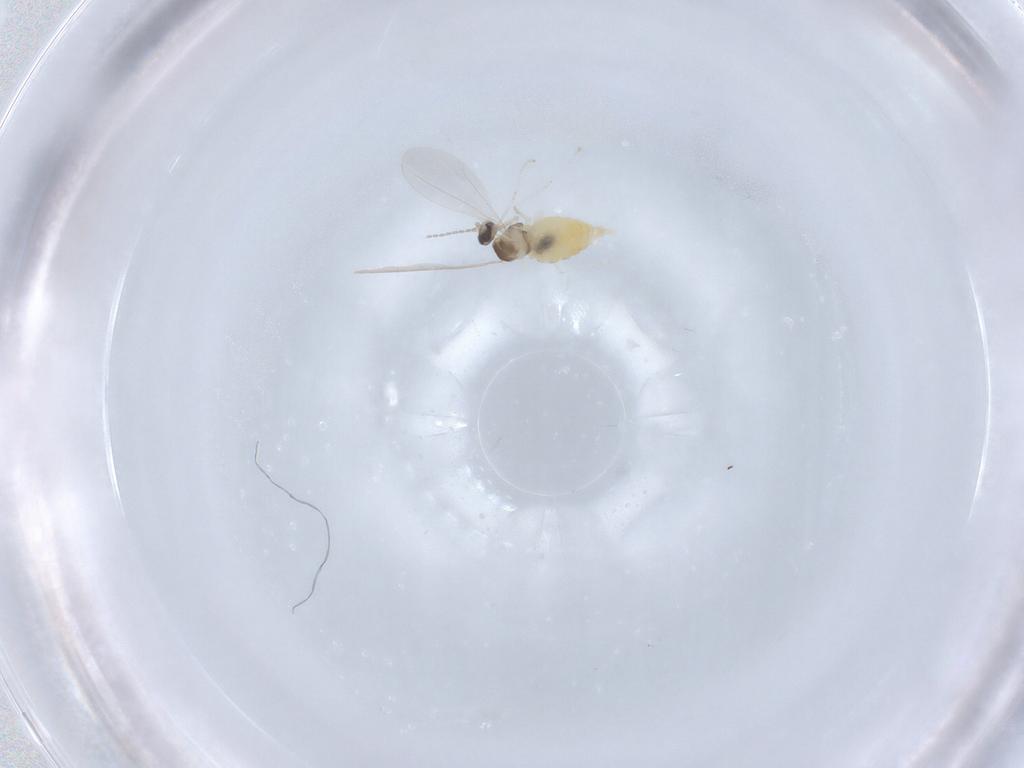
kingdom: Animalia
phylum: Arthropoda
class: Insecta
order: Diptera
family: Cecidomyiidae
